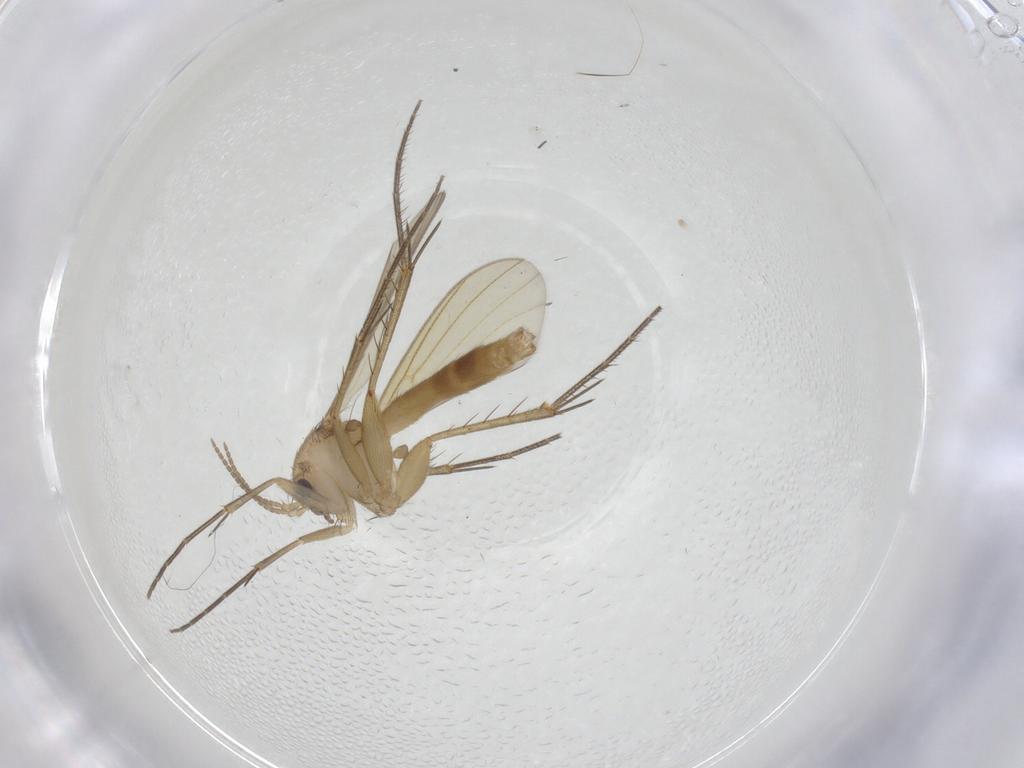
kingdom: Animalia
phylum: Arthropoda
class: Insecta
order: Diptera
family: Mycetophilidae
